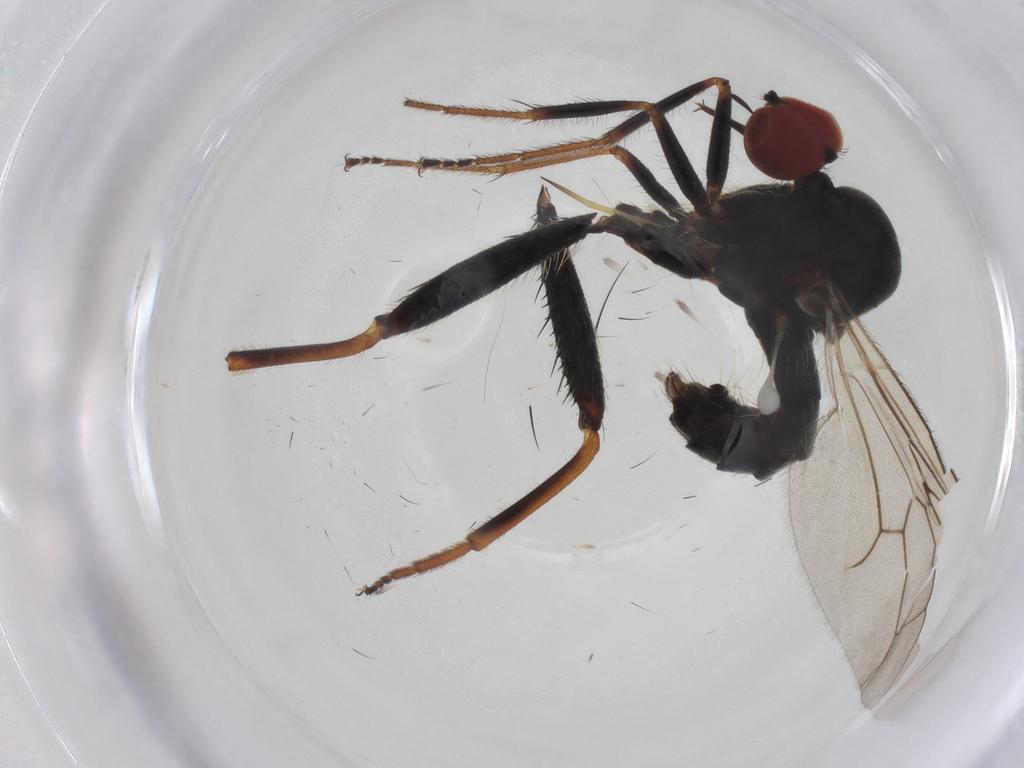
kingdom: Animalia
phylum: Arthropoda
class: Insecta
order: Diptera
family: Hybotidae
